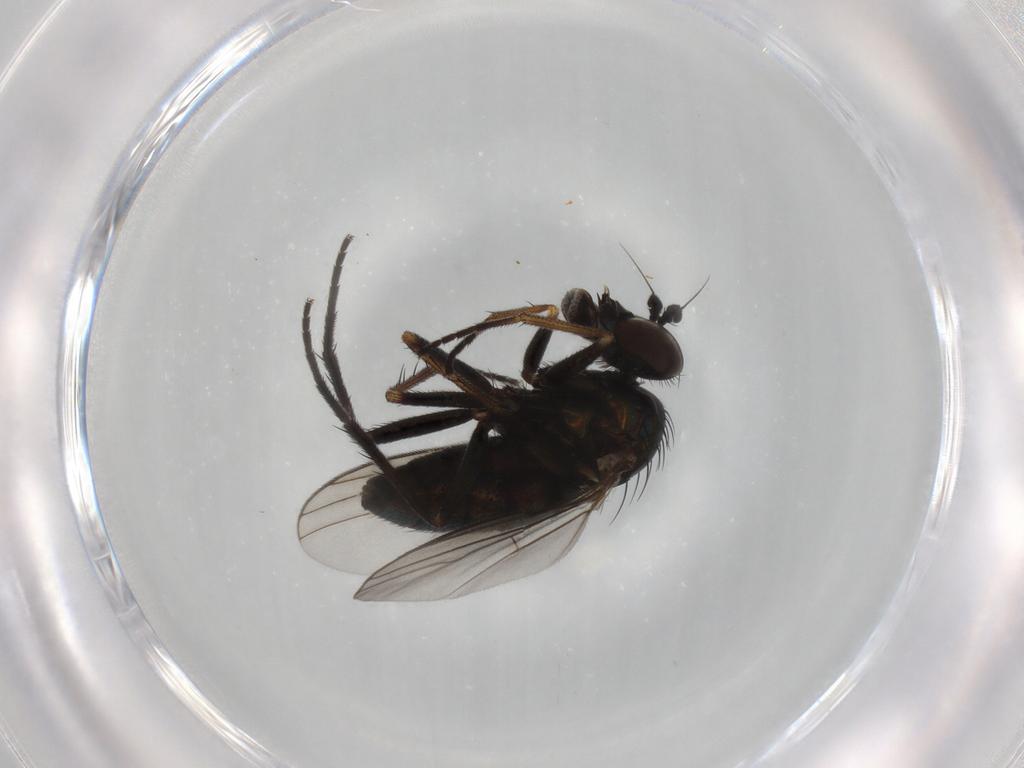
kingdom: Animalia
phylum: Arthropoda
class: Insecta
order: Diptera
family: Dolichopodidae
